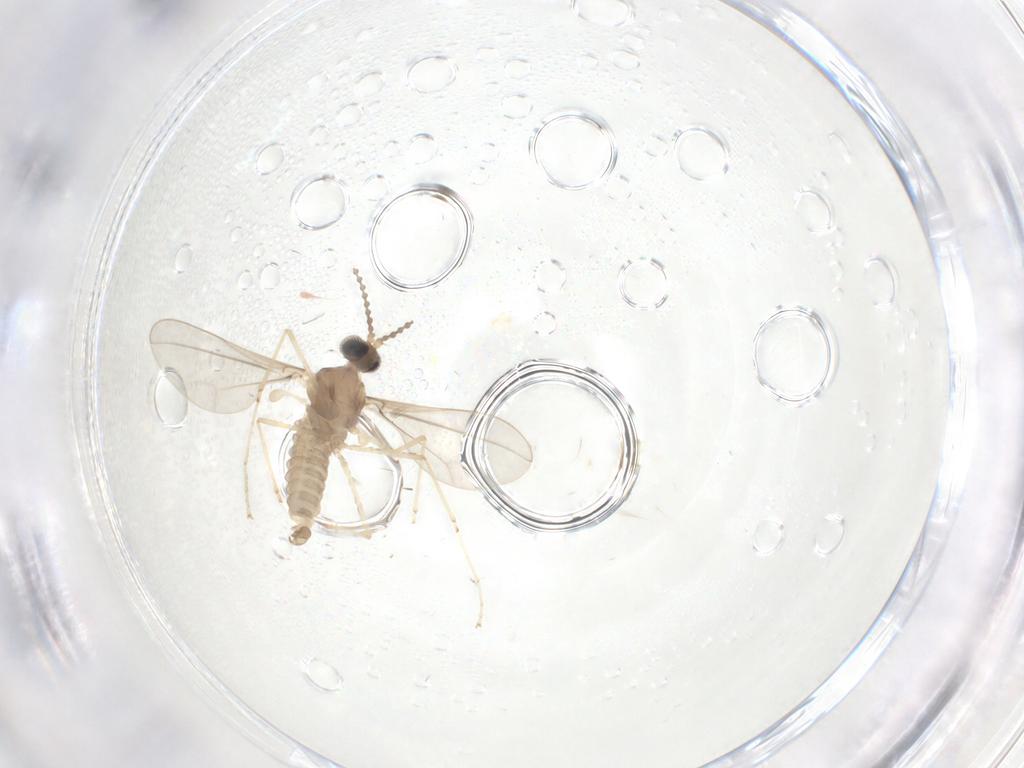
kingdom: Animalia
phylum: Arthropoda
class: Insecta
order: Diptera
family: Cecidomyiidae
